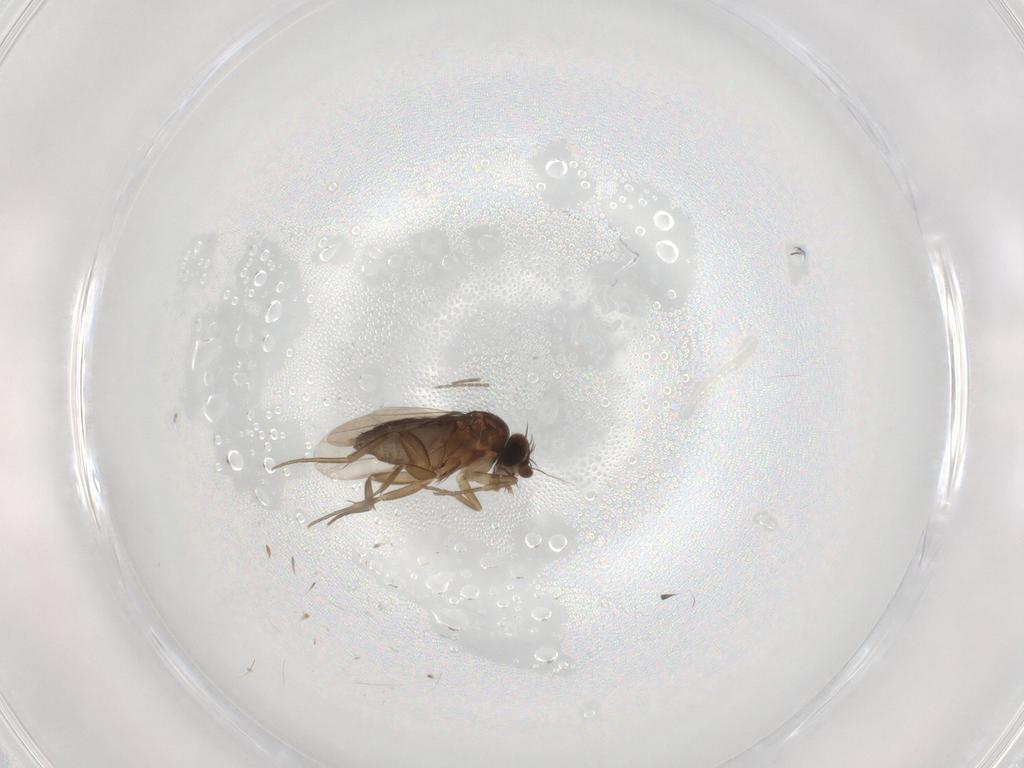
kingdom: Animalia
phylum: Arthropoda
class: Insecta
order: Diptera
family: Phoridae
